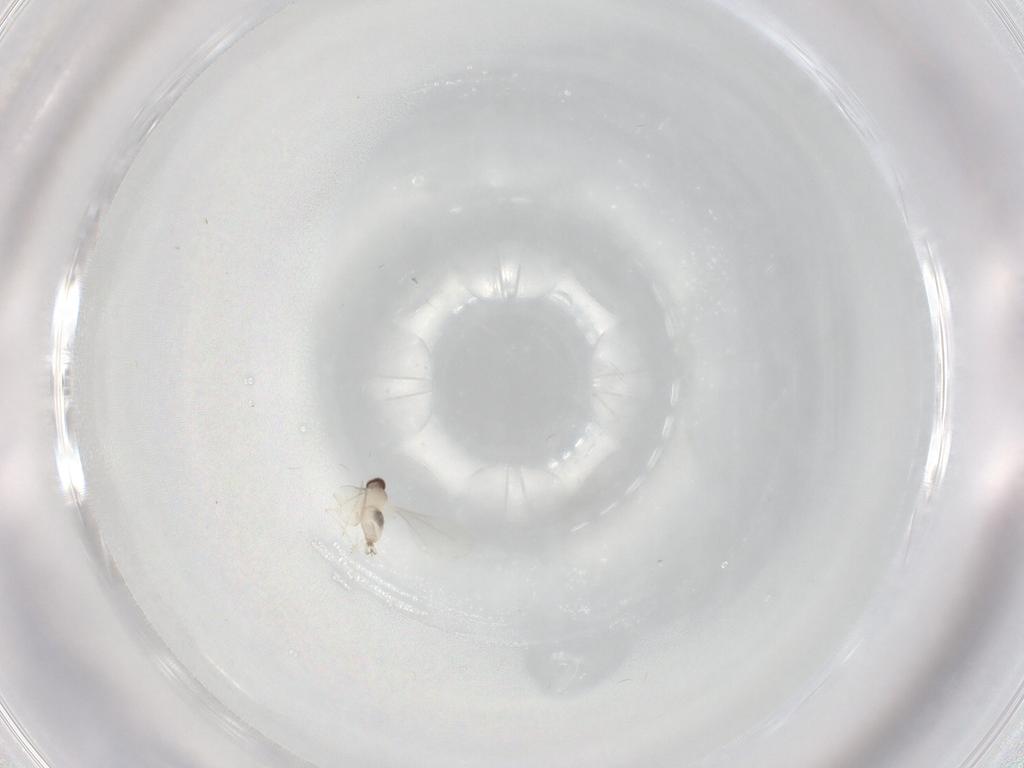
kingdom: Animalia
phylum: Arthropoda
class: Insecta
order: Diptera
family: Cecidomyiidae
